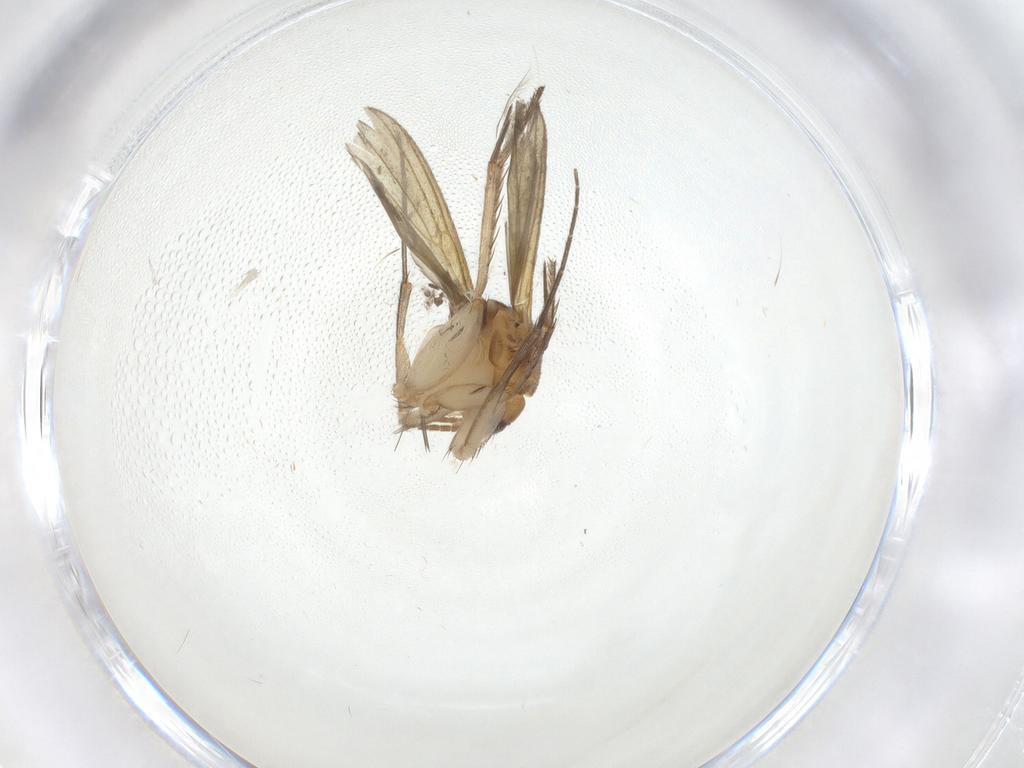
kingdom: Animalia
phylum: Arthropoda
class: Insecta
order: Diptera
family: Mycetophilidae
